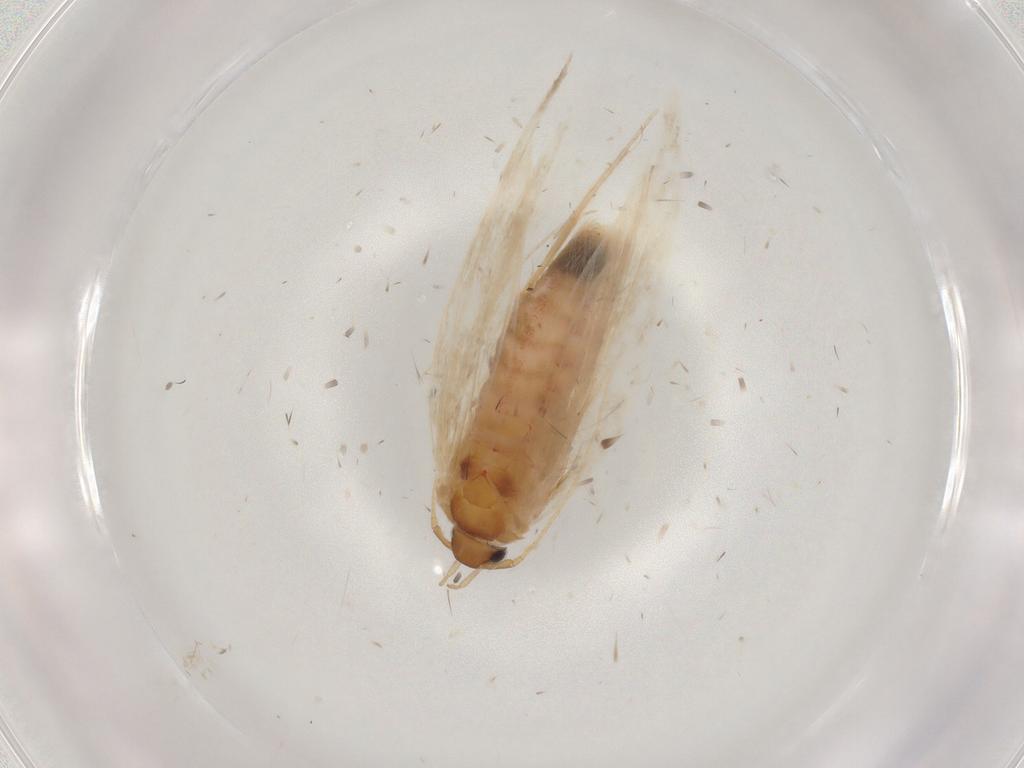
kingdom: Animalia
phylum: Arthropoda
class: Insecta
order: Lepidoptera
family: Gelechiidae
